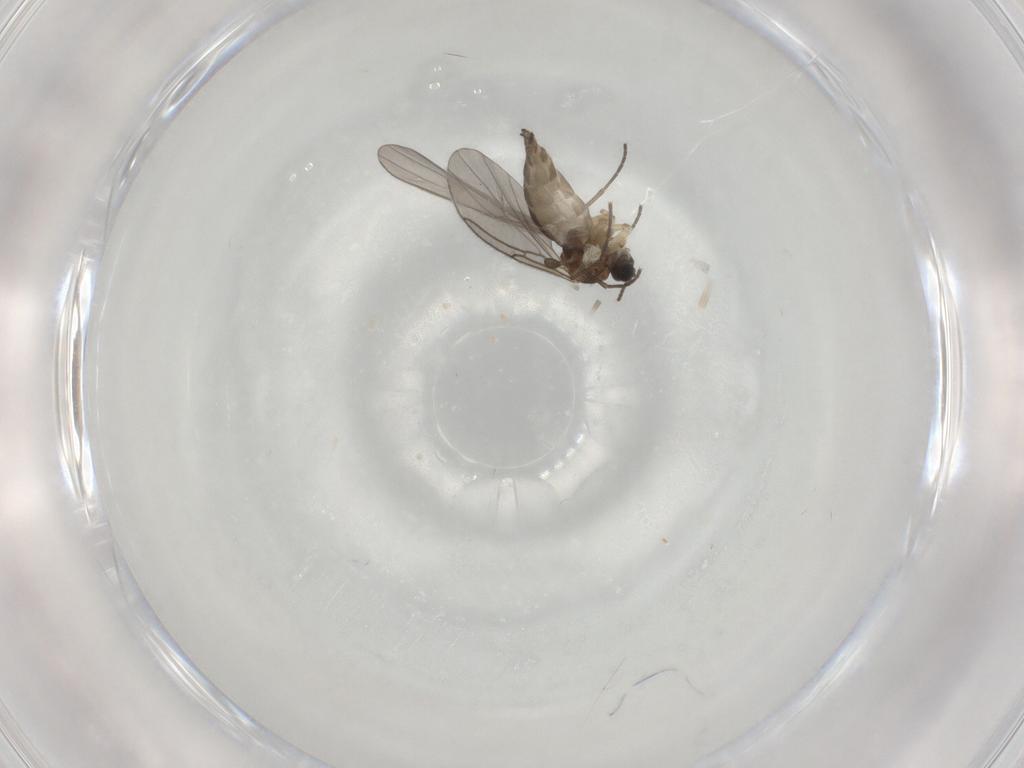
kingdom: Animalia
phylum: Arthropoda
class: Insecta
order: Diptera
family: Sciaridae
